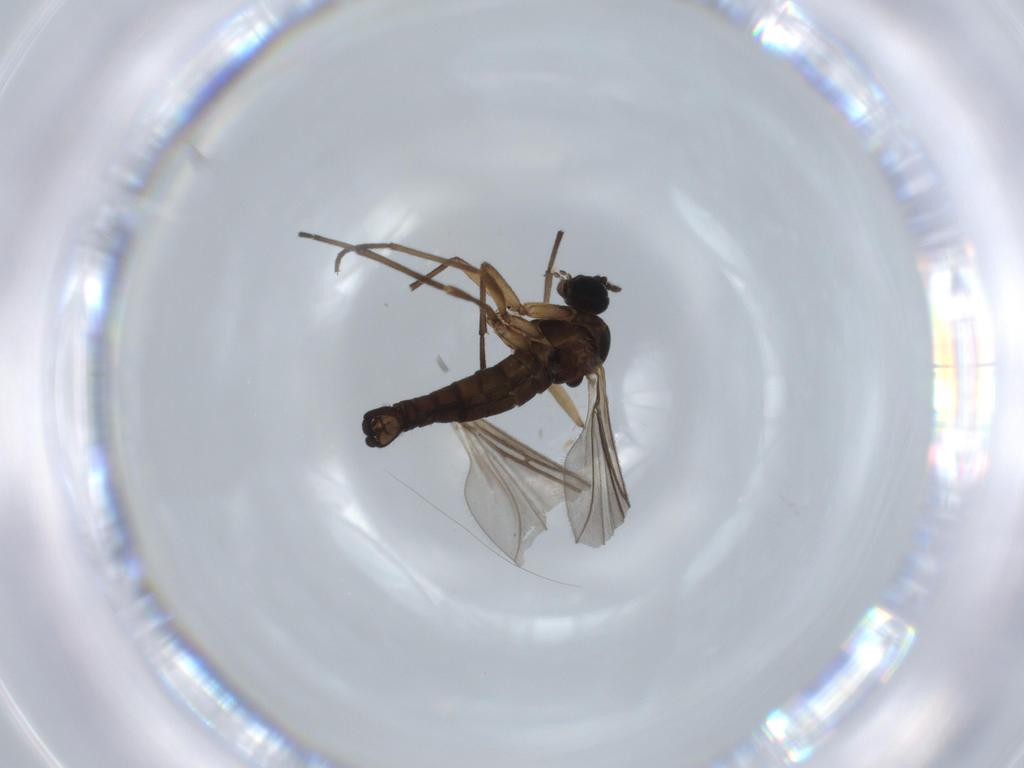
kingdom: Animalia
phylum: Arthropoda
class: Insecta
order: Diptera
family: Sciaridae
